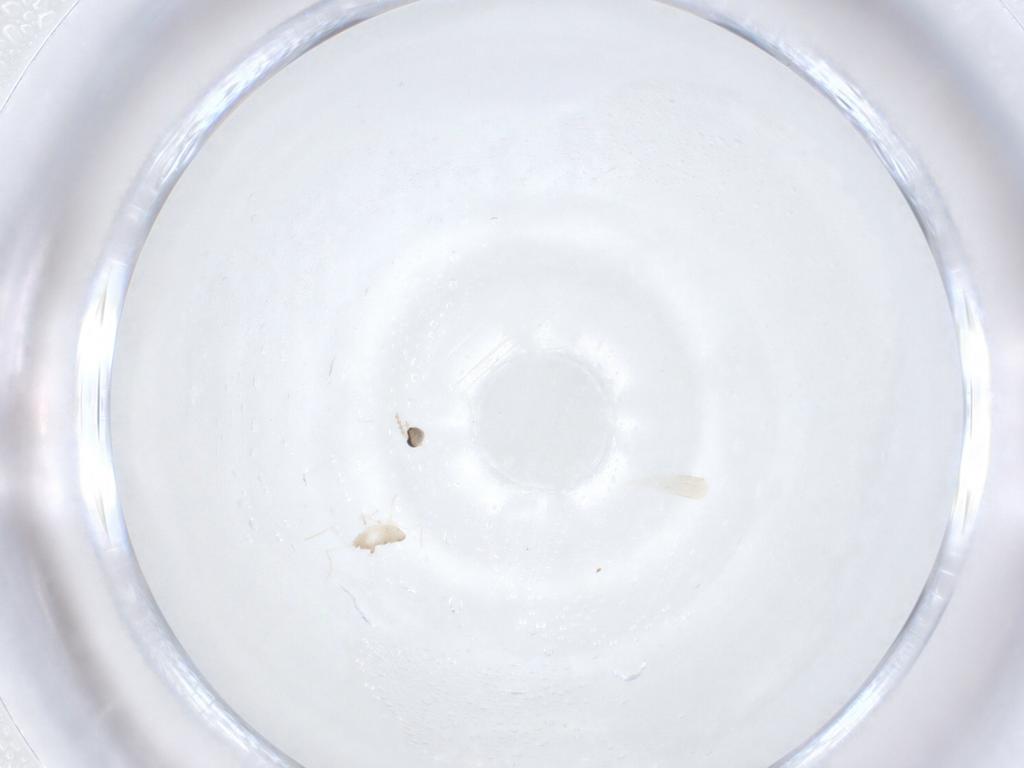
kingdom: Animalia
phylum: Arthropoda
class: Insecta
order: Diptera
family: Cecidomyiidae
